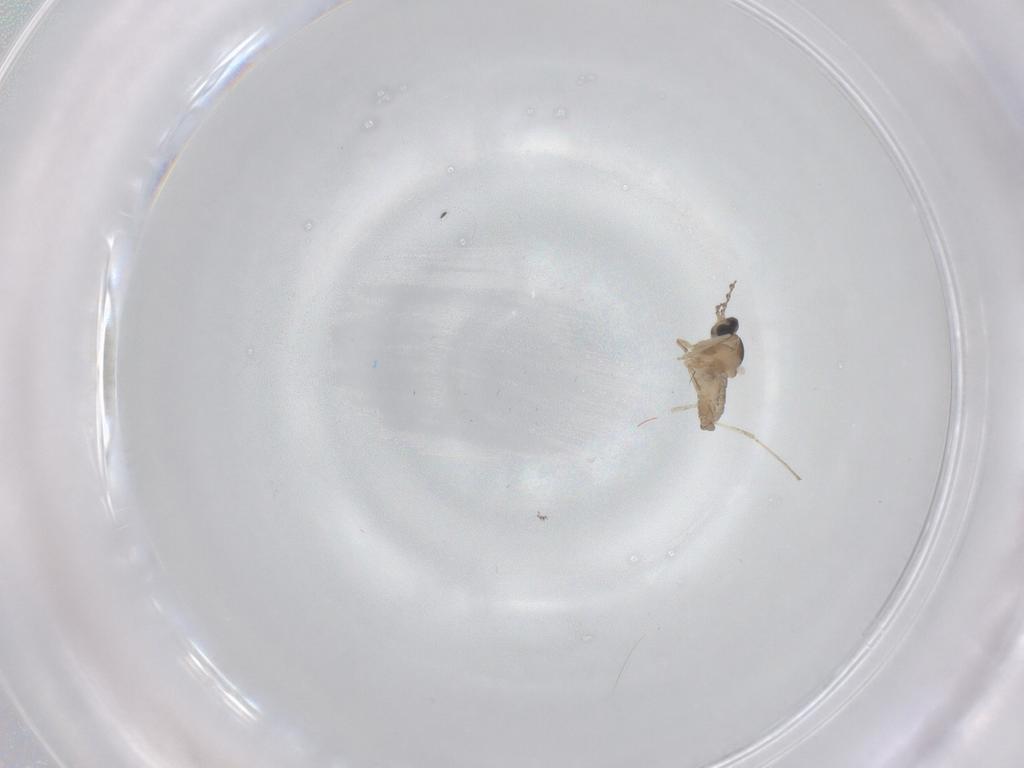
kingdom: Animalia
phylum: Arthropoda
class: Insecta
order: Diptera
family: Cecidomyiidae
